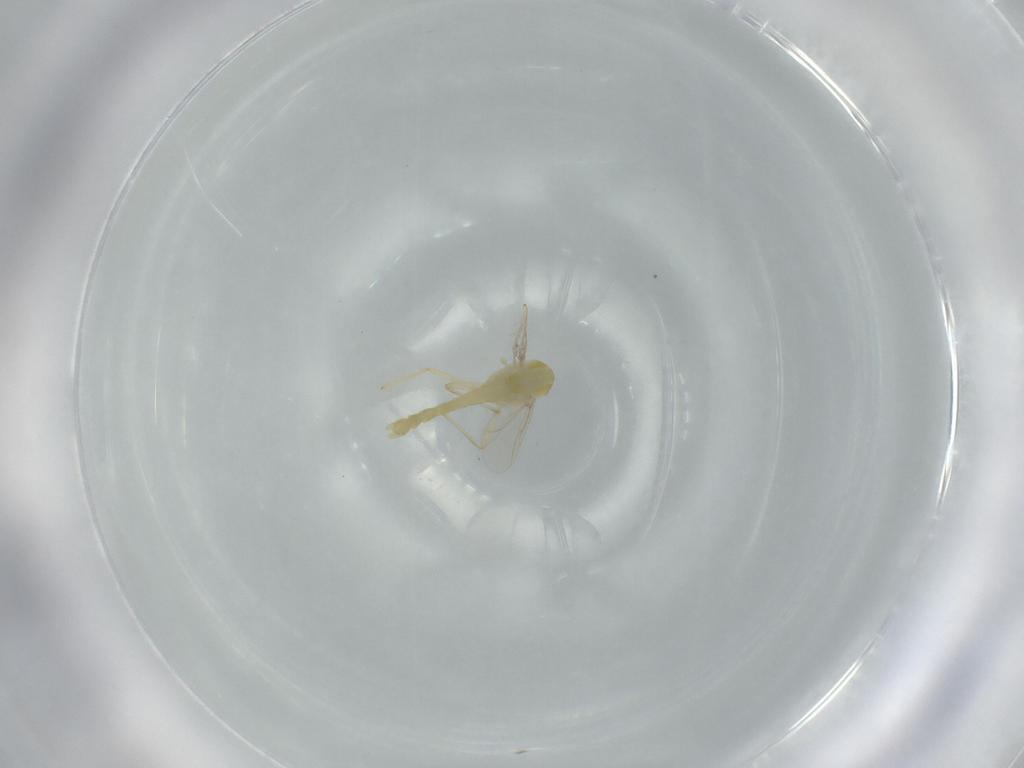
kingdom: Animalia
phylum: Arthropoda
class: Insecta
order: Diptera
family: Chironomidae
